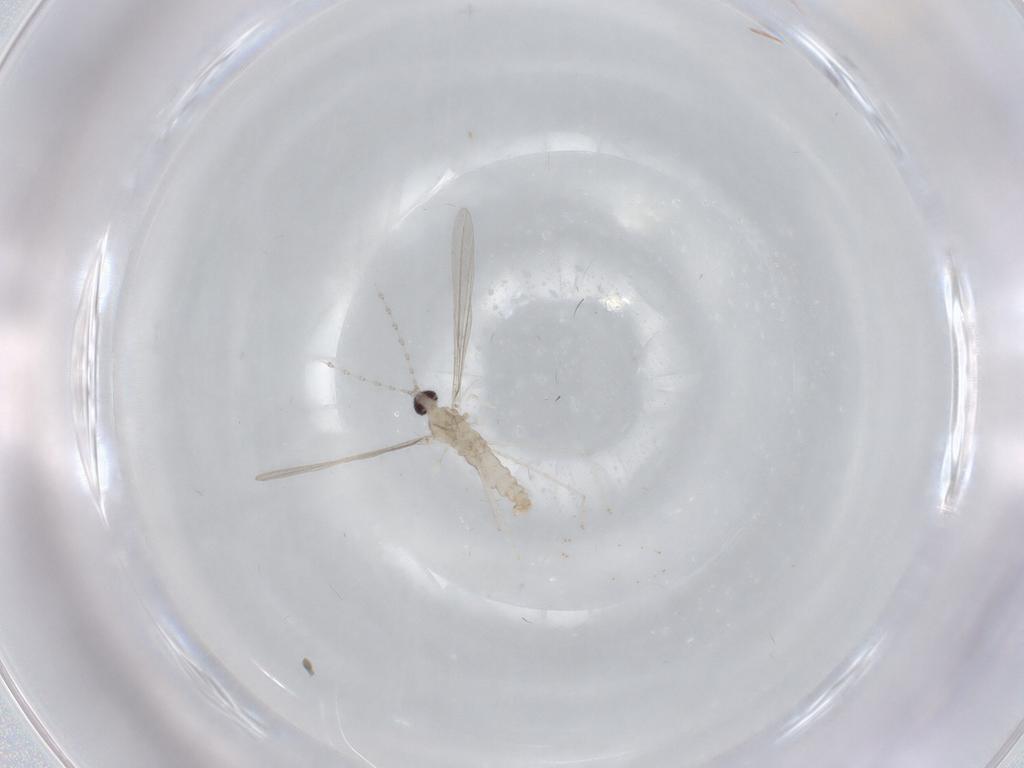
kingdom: Animalia
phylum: Arthropoda
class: Insecta
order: Diptera
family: Cecidomyiidae
